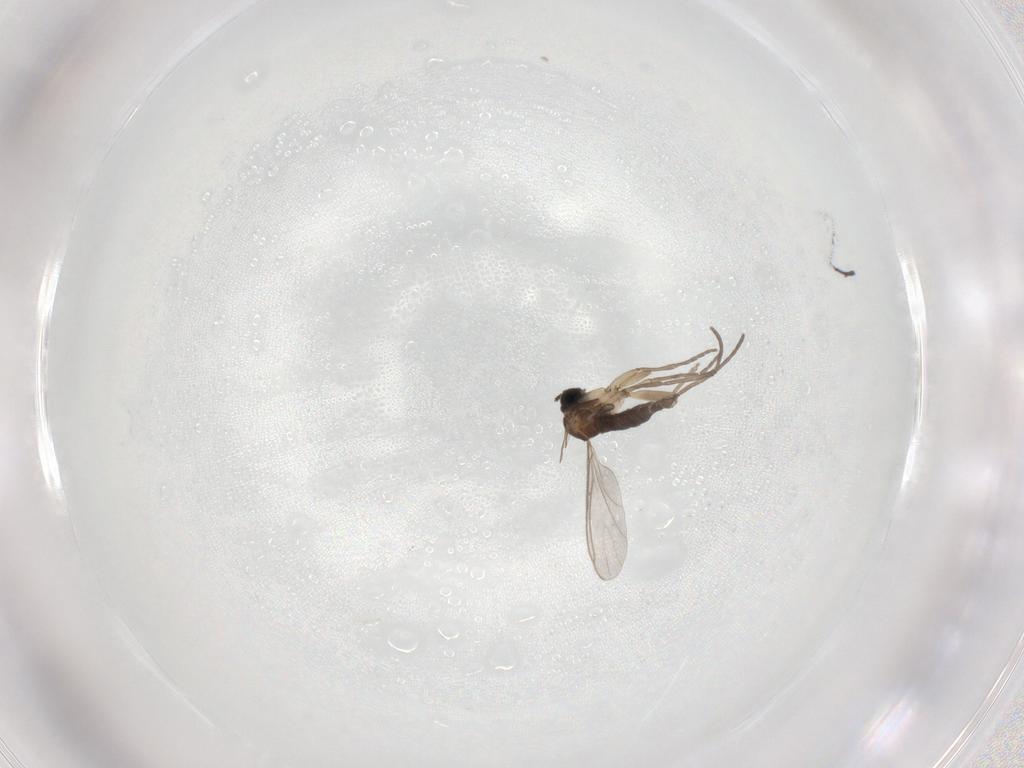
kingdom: Animalia
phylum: Arthropoda
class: Insecta
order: Diptera
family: Sciaridae
